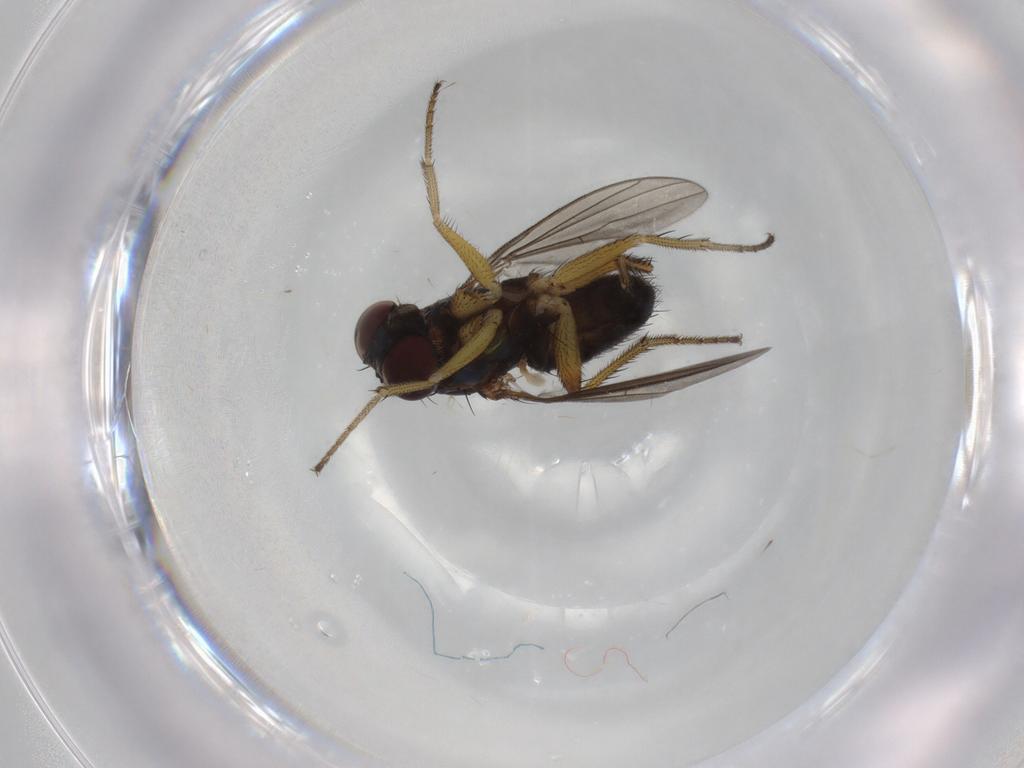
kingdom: Animalia
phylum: Arthropoda
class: Insecta
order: Diptera
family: Dolichopodidae
